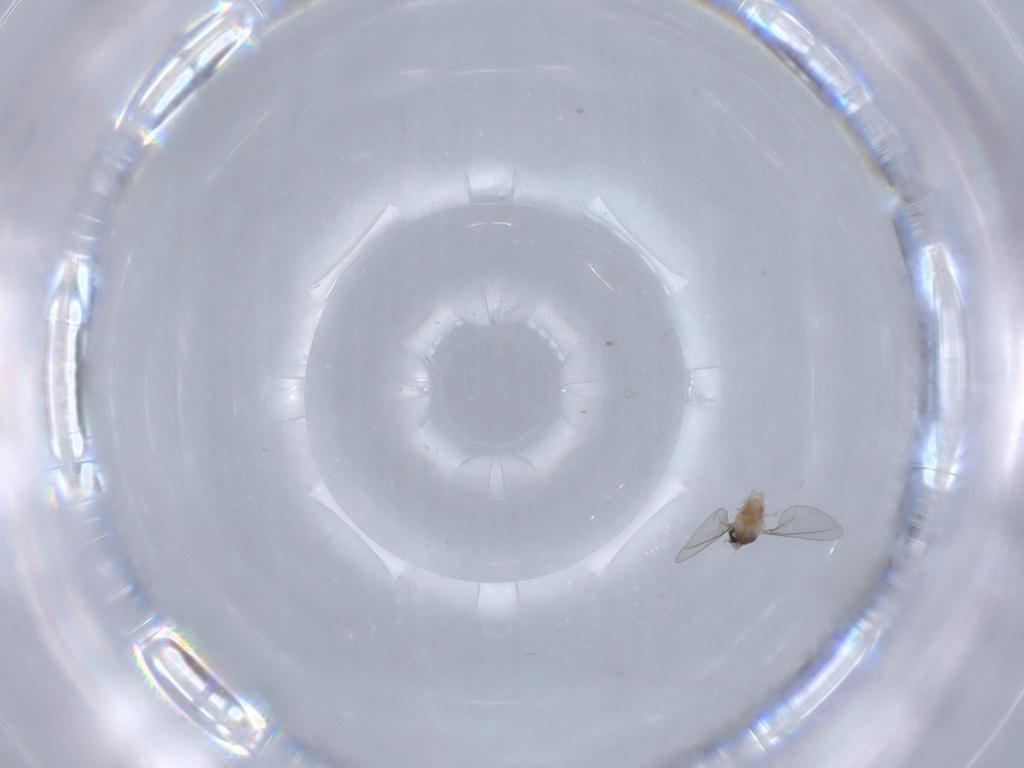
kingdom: Animalia
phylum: Arthropoda
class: Insecta
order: Diptera
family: Cecidomyiidae
